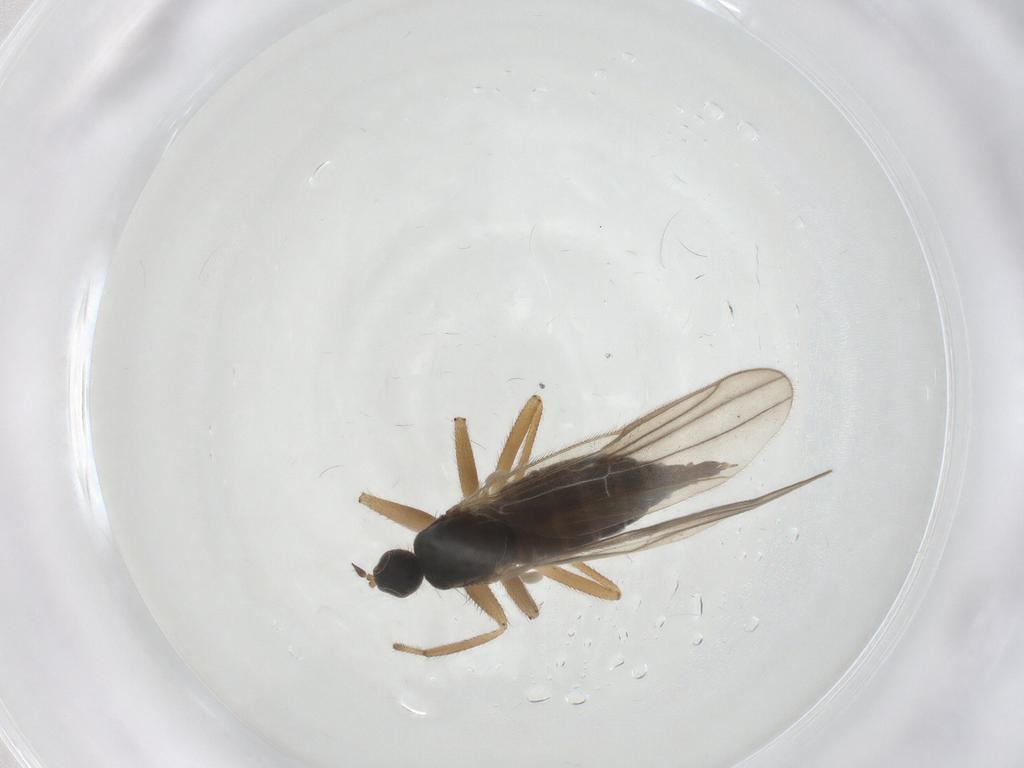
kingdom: Animalia
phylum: Arthropoda
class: Insecta
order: Diptera
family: Hybotidae
